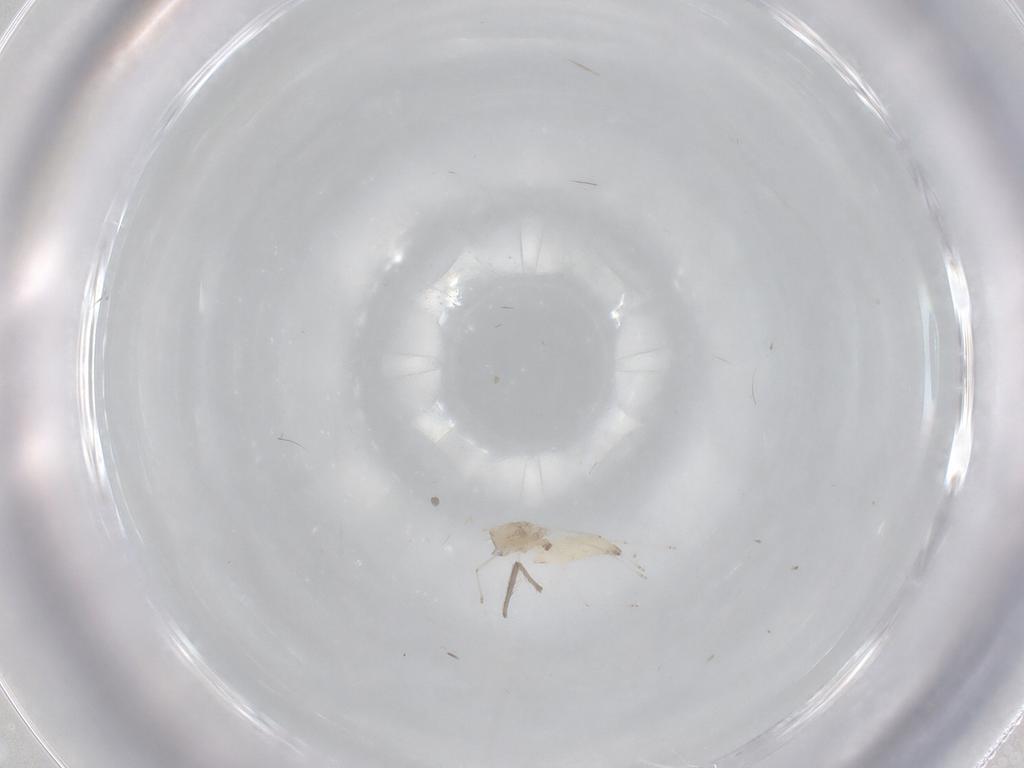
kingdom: Animalia
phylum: Arthropoda
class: Insecta
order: Diptera
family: Cecidomyiidae
